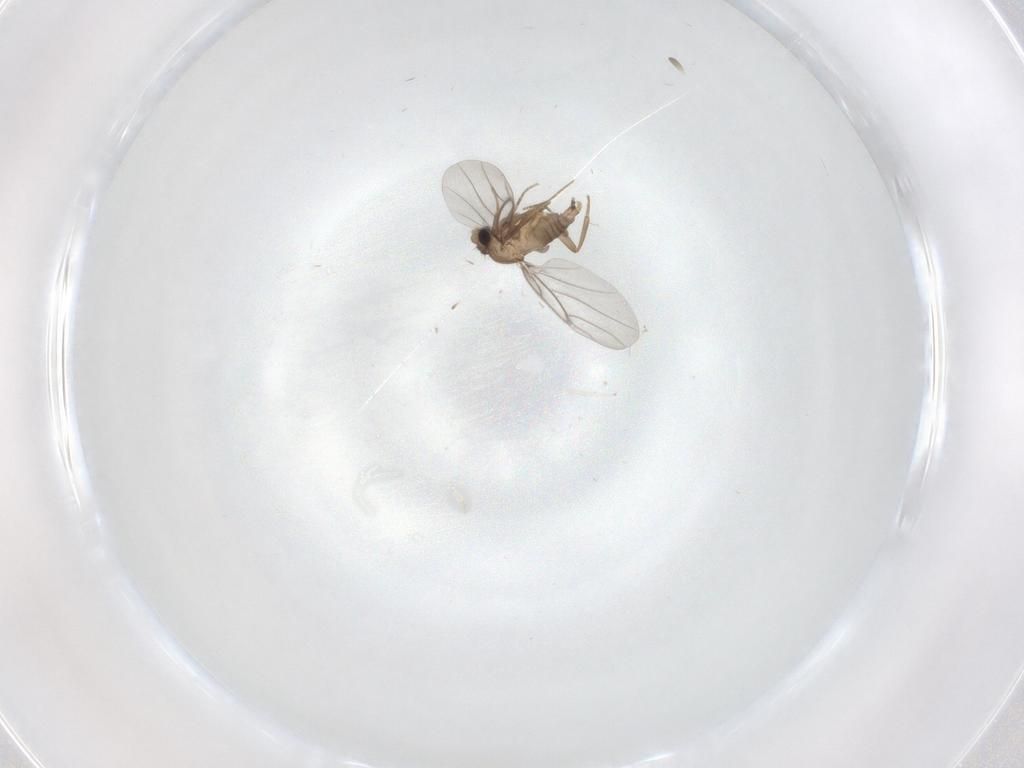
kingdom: Animalia
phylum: Arthropoda
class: Insecta
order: Diptera
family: Cecidomyiidae
